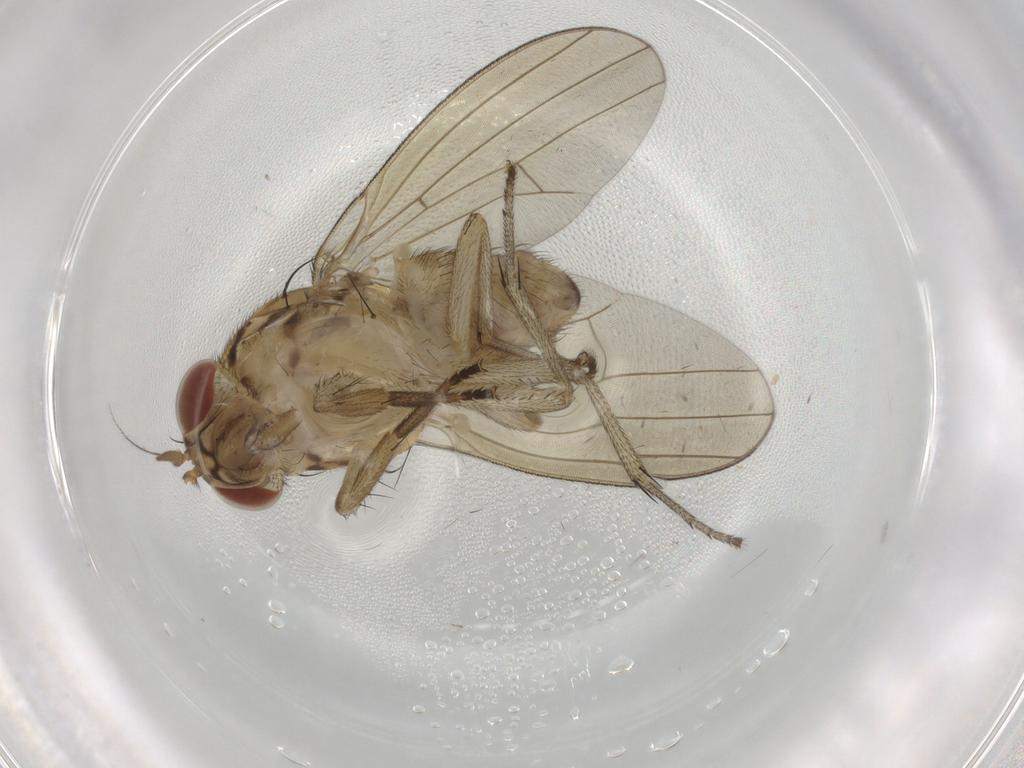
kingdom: Animalia
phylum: Arthropoda
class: Insecta
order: Diptera
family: Hybotidae
